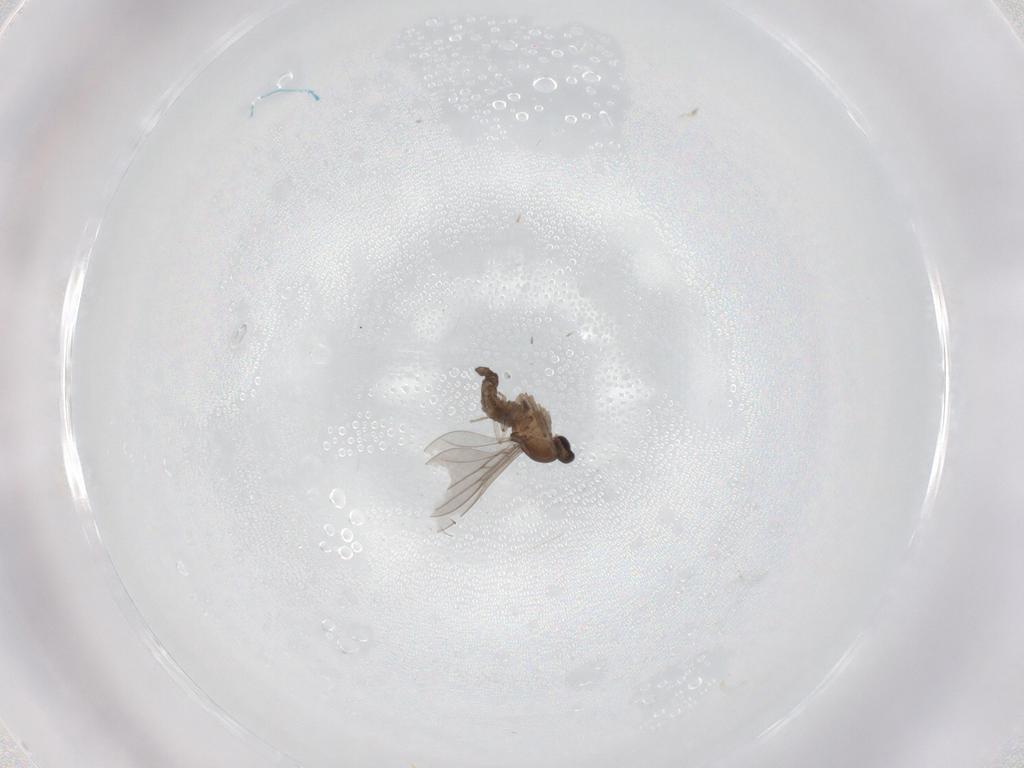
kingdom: Animalia
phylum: Arthropoda
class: Insecta
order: Diptera
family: Cecidomyiidae
